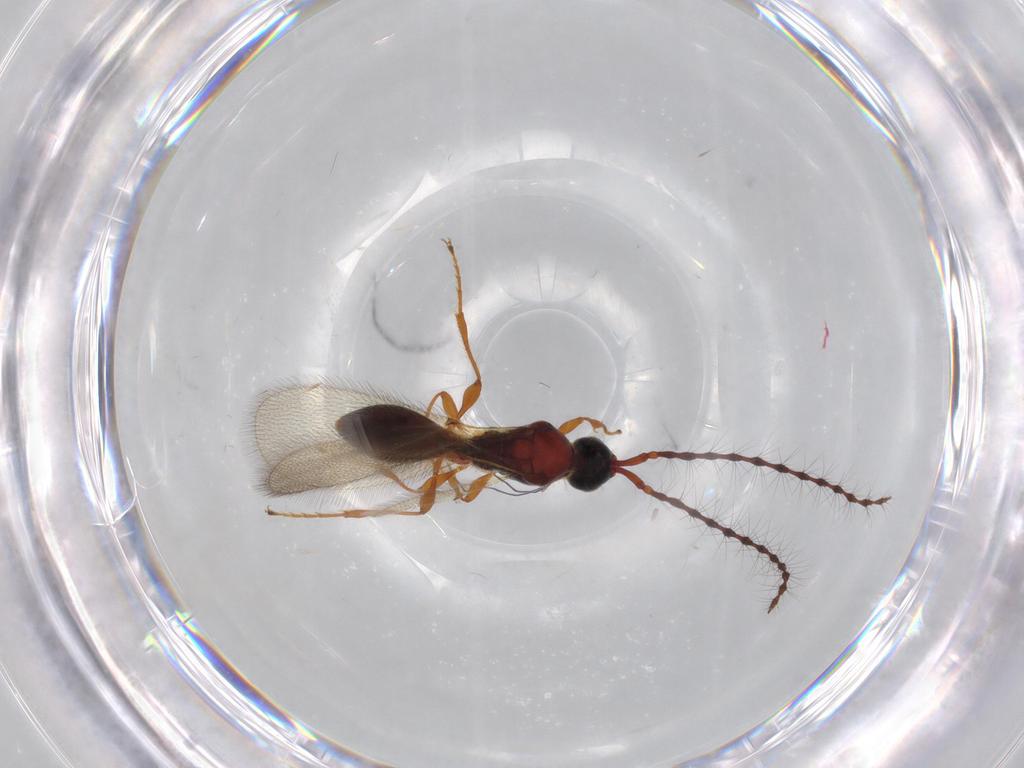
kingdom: Animalia
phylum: Arthropoda
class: Insecta
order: Hymenoptera
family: Diapriidae
